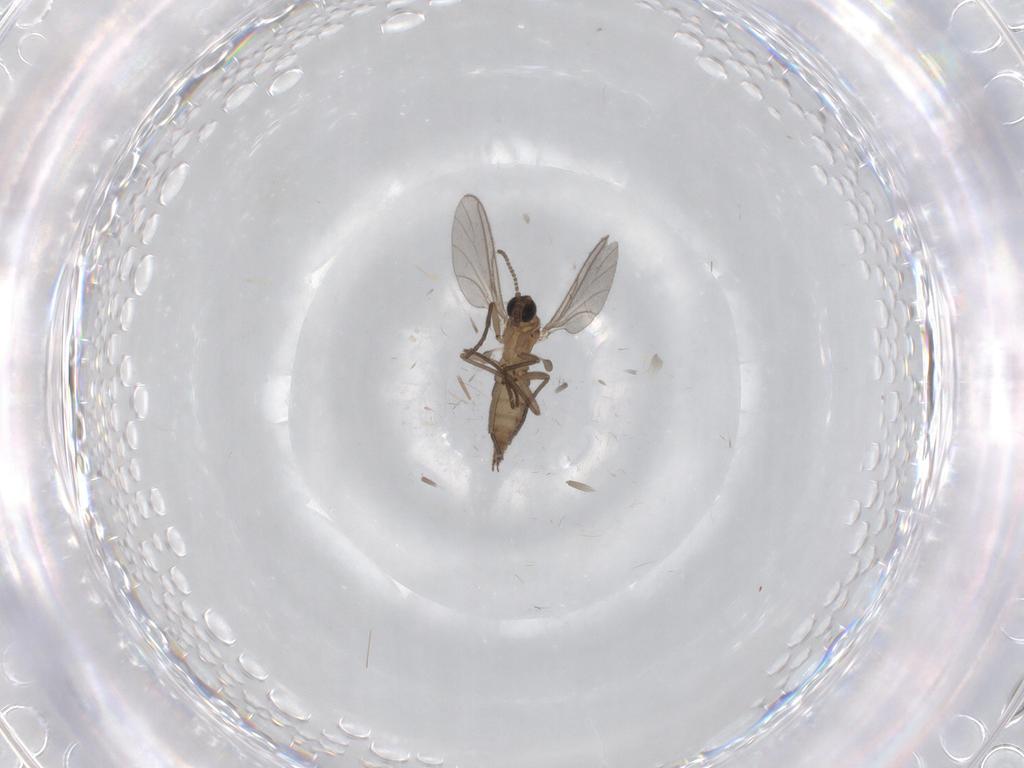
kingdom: Animalia
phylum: Arthropoda
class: Insecta
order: Diptera
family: Sciaridae
